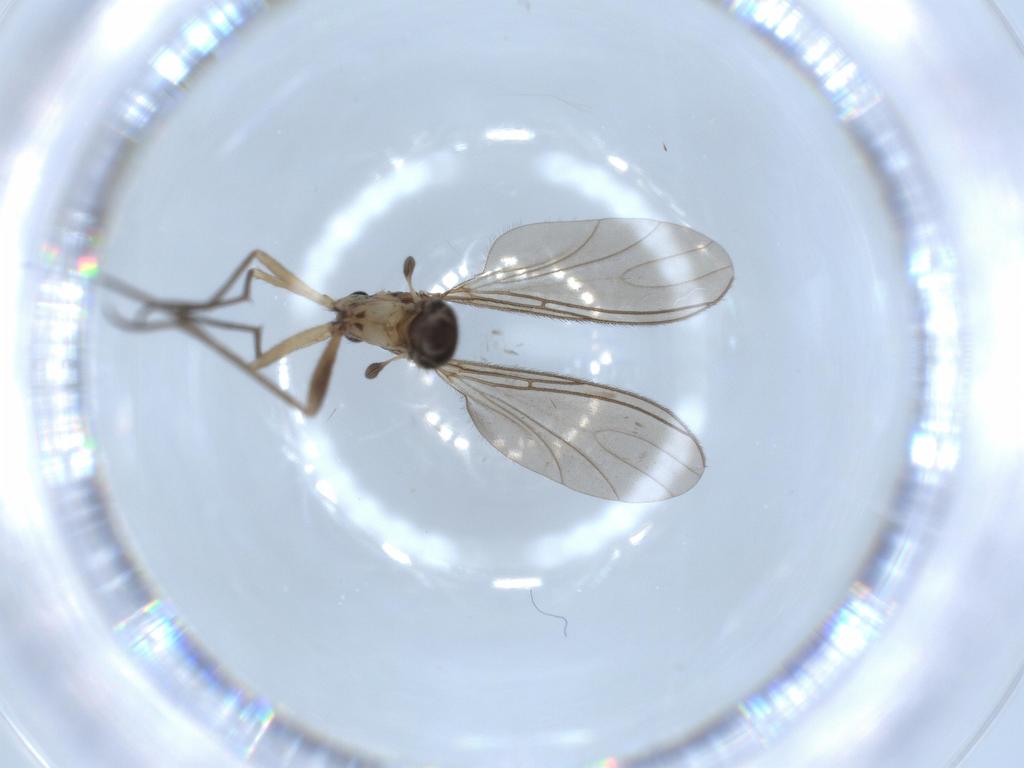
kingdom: Animalia
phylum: Arthropoda
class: Insecta
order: Diptera
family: Sciaridae
